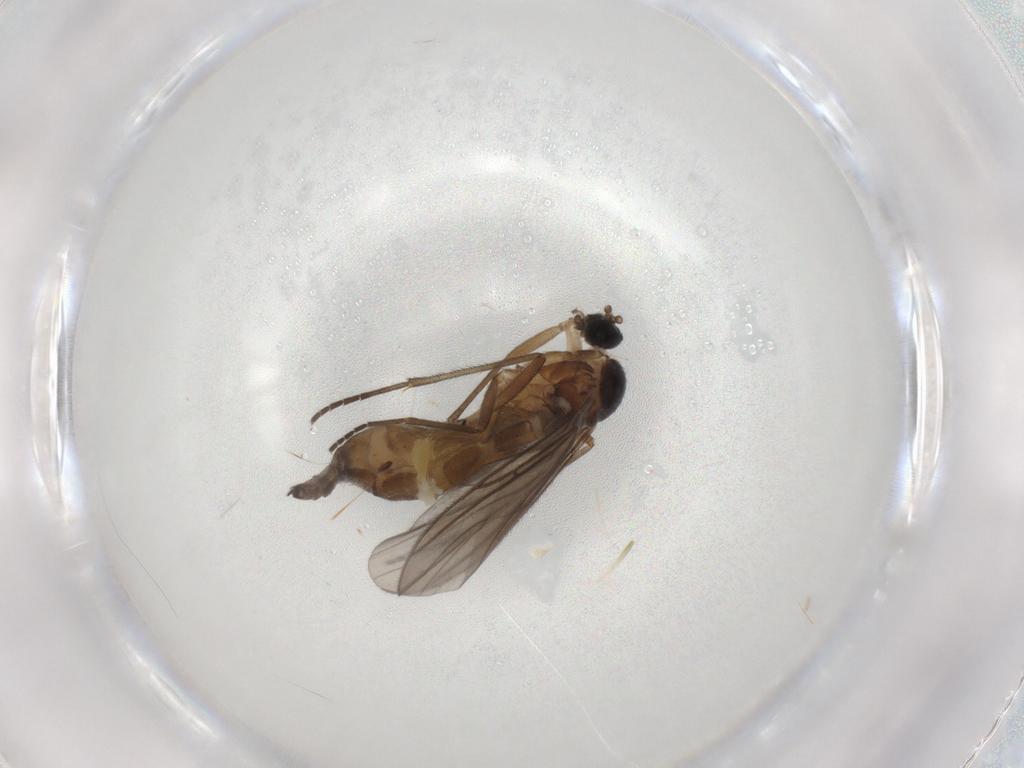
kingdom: Animalia
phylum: Arthropoda
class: Insecta
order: Diptera
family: Sciaridae
